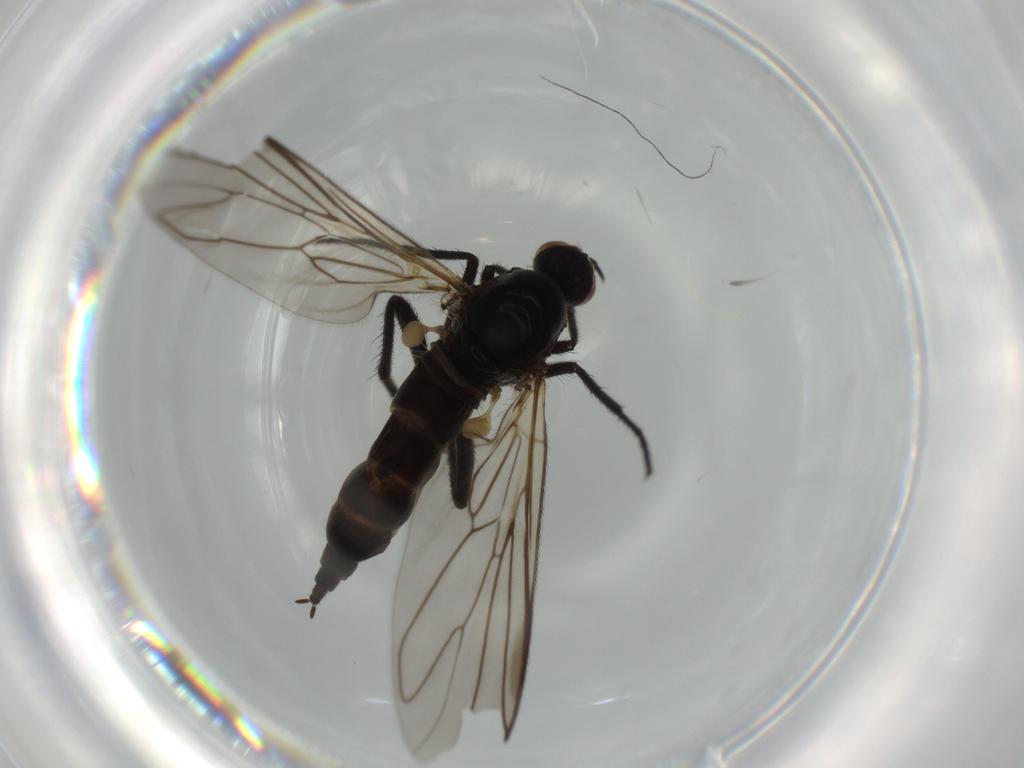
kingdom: Animalia
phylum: Arthropoda
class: Insecta
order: Diptera
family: Empididae
